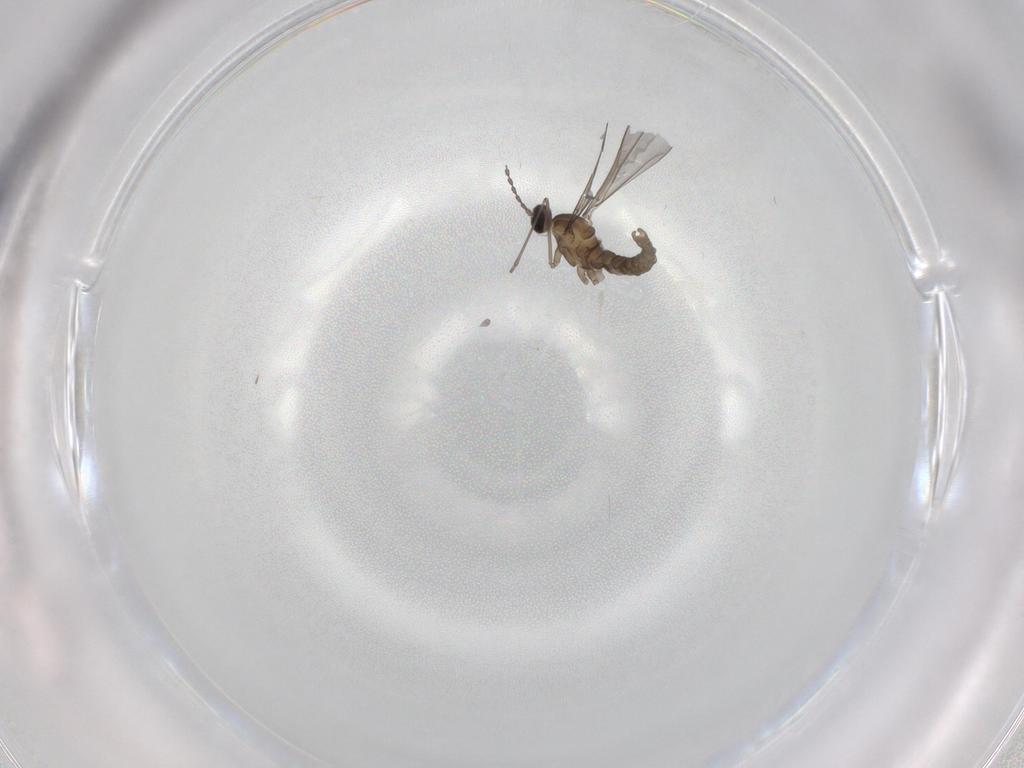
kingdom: Animalia
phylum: Arthropoda
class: Insecta
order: Diptera
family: Cecidomyiidae
